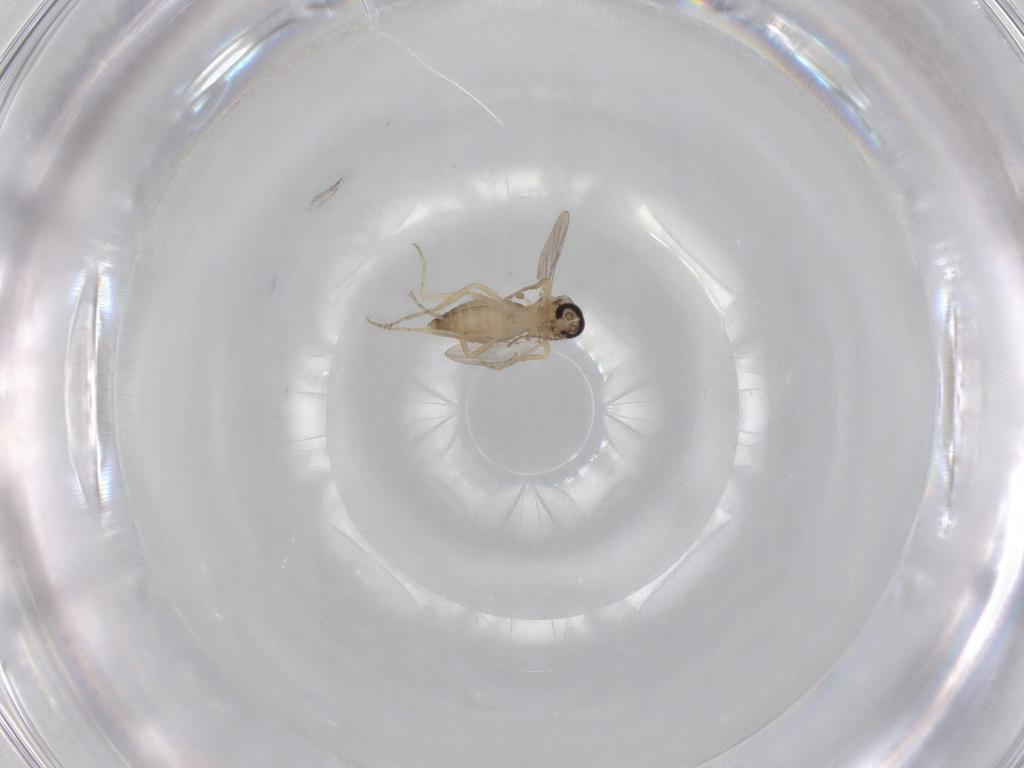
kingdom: Animalia
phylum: Arthropoda
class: Insecta
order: Diptera
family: Ceratopogonidae
